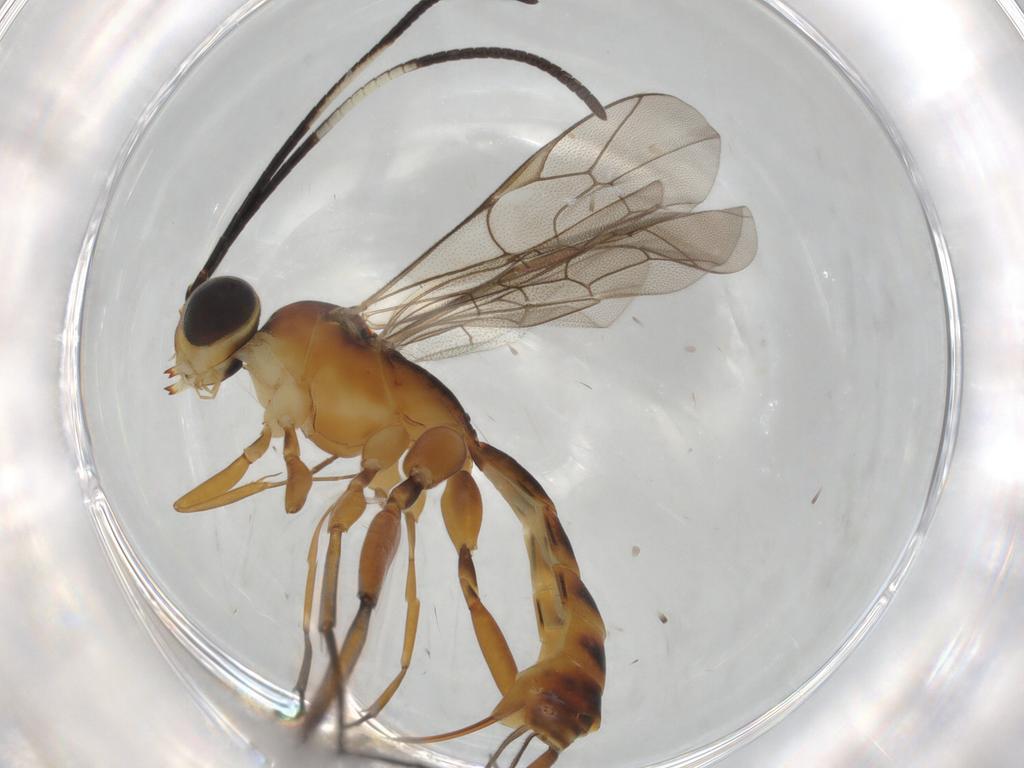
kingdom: Animalia
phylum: Arthropoda
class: Insecta
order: Hymenoptera
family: Ichneumonidae
